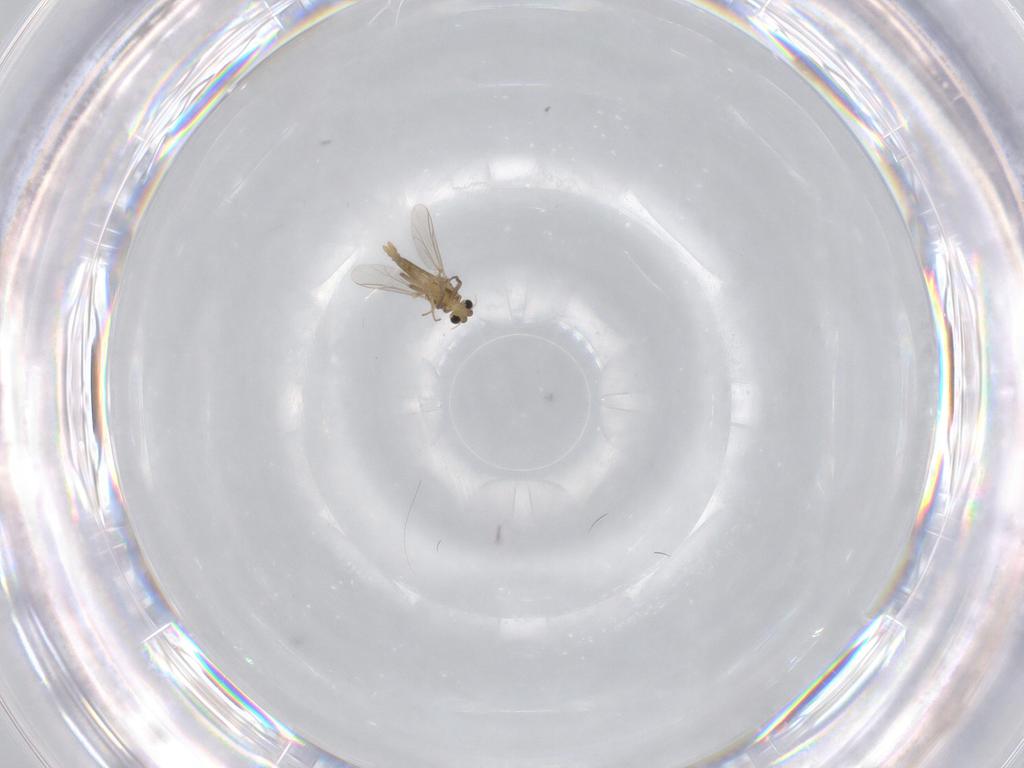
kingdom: Animalia
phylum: Arthropoda
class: Insecta
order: Diptera
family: Chironomidae
